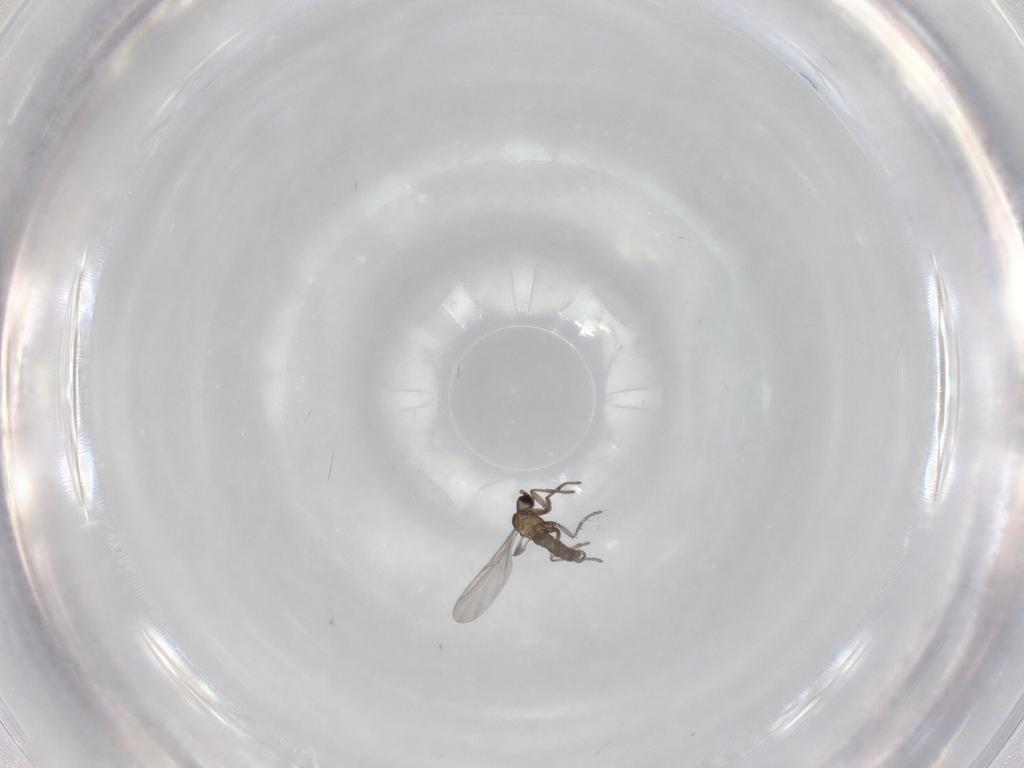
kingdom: Animalia
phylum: Arthropoda
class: Insecta
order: Diptera
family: Sciaridae
